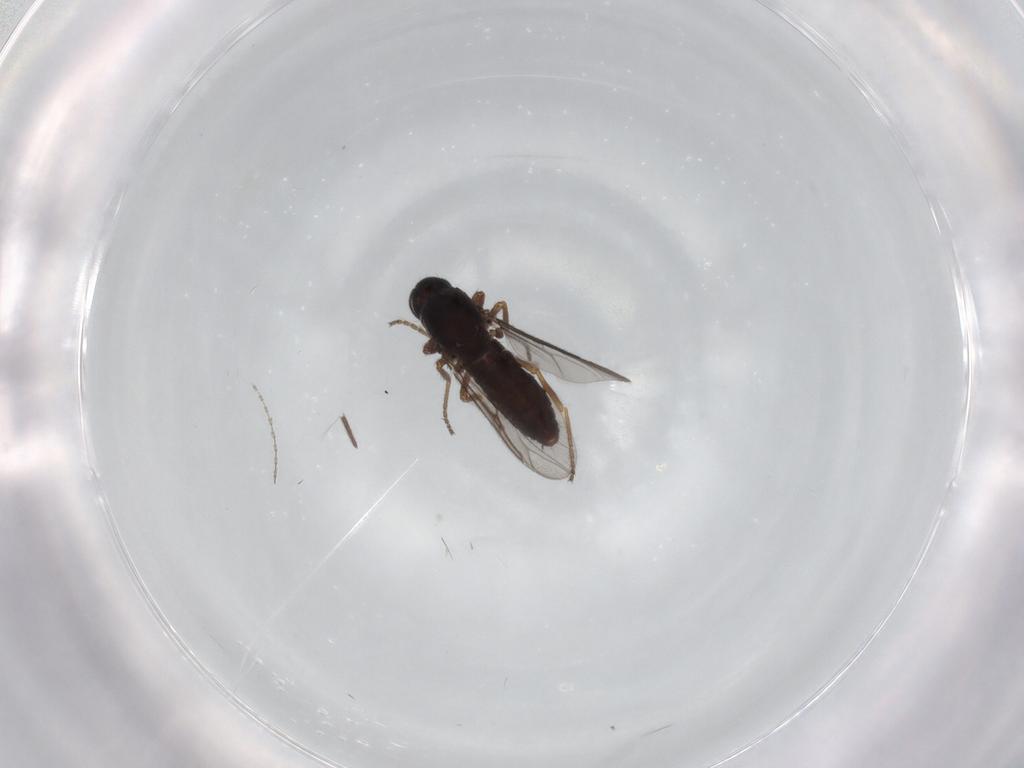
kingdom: Animalia
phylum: Arthropoda
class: Insecta
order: Diptera
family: Ceratopogonidae
